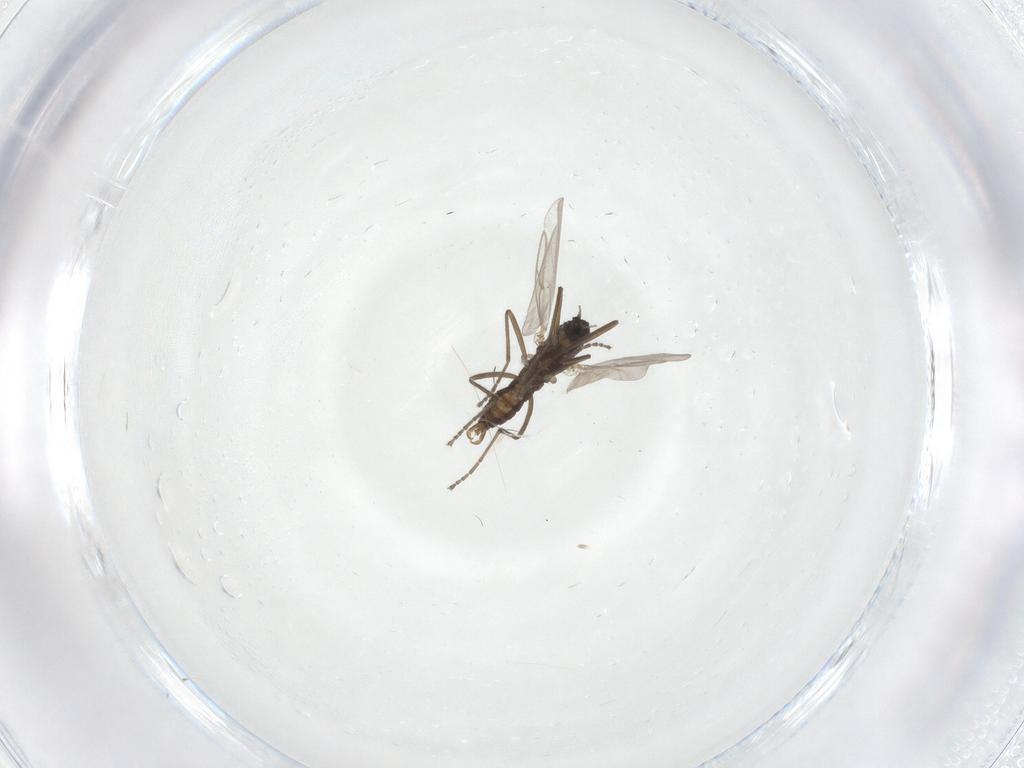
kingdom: Animalia
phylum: Arthropoda
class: Insecta
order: Diptera
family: Cecidomyiidae
